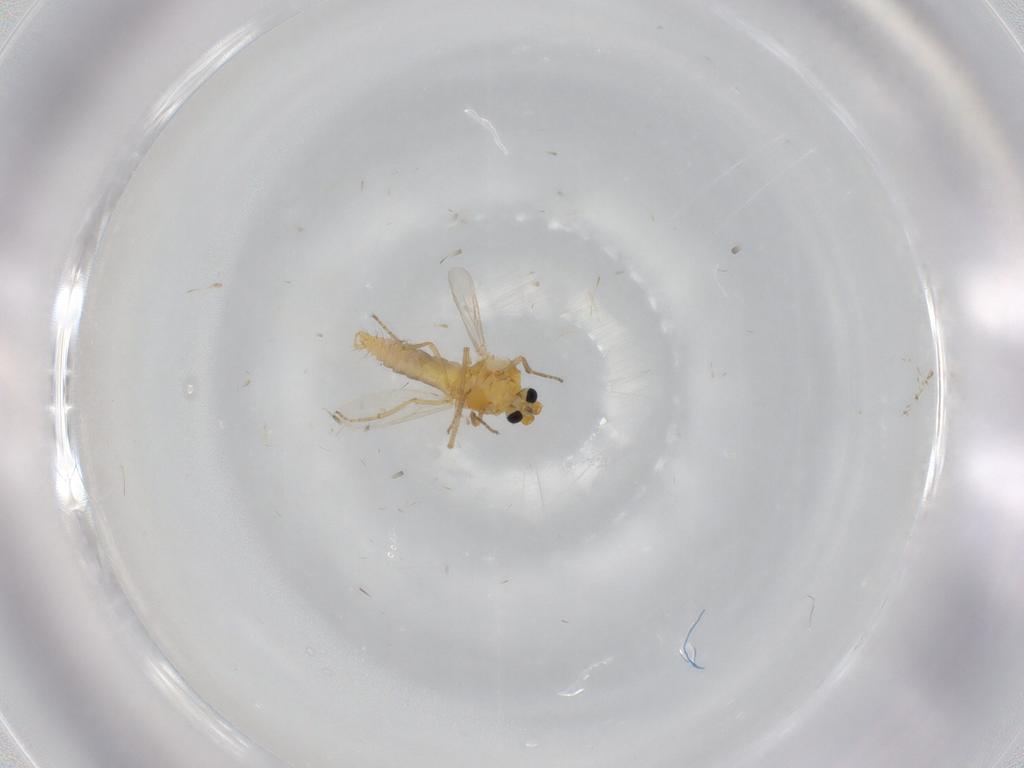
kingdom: Animalia
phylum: Arthropoda
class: Insecta
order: Diptera
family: Ceratopogonidae
